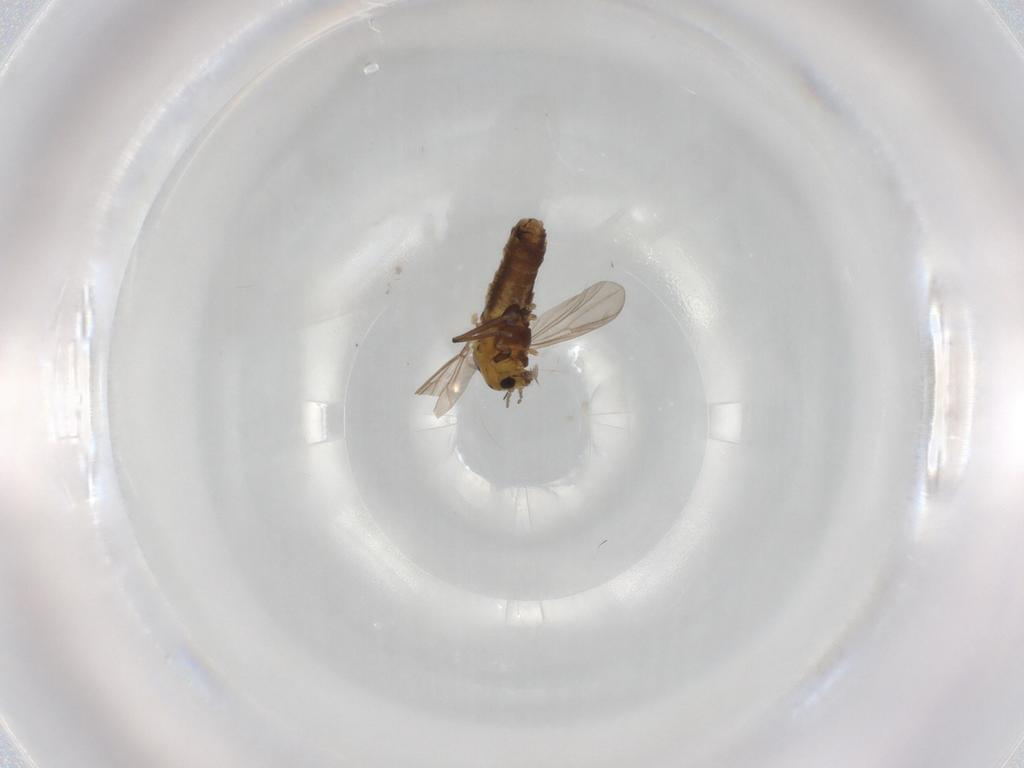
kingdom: Animalia
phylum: Arthropoda
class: Insecta
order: Diptera
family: Chironomidae
